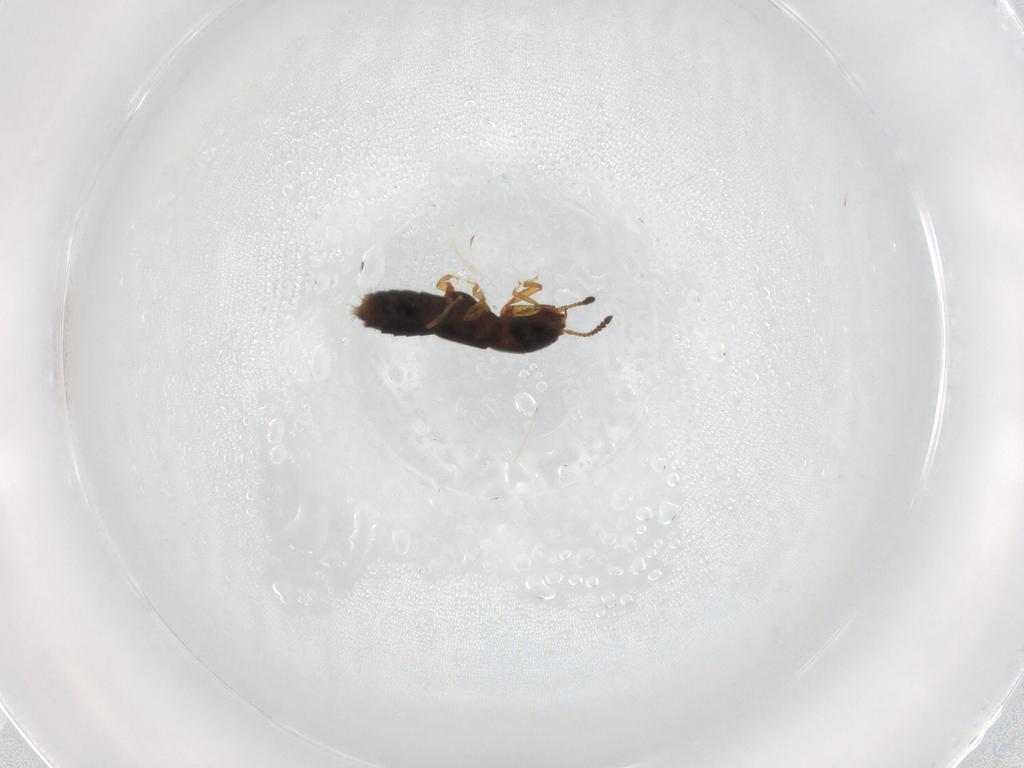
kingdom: Animalia
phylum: Arthropoda
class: Insecta
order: Coleoptera
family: Staphylinidae
